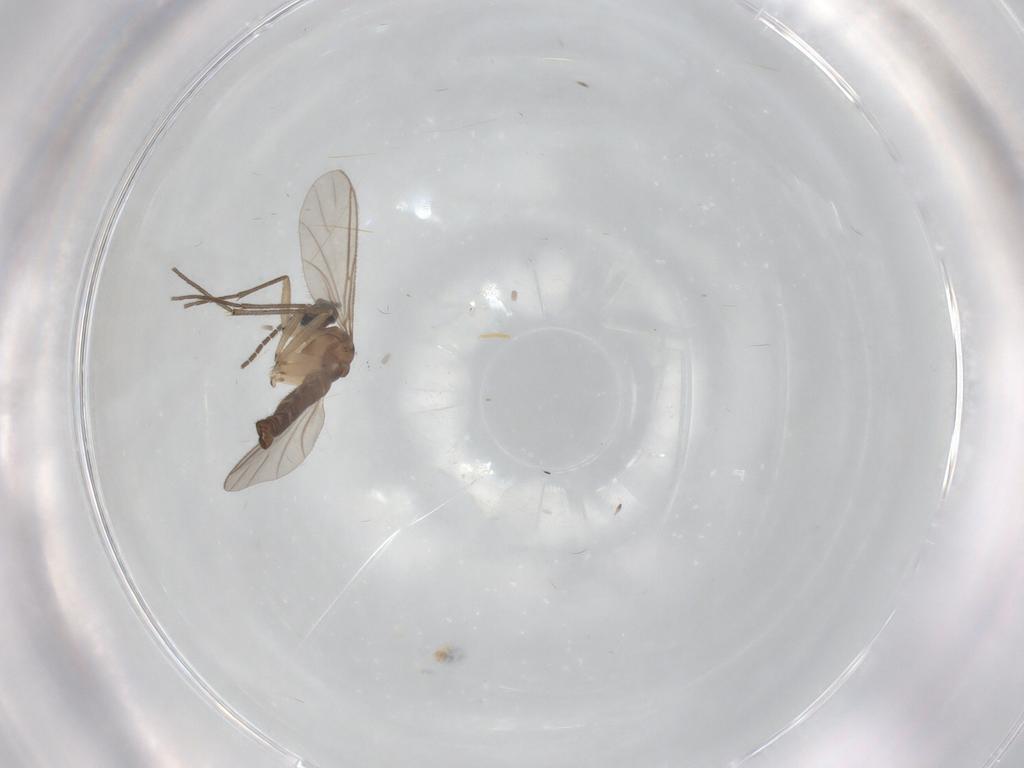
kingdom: Animalia
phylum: Arthropoda
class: Insecta
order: Diptera
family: Sciaridae
